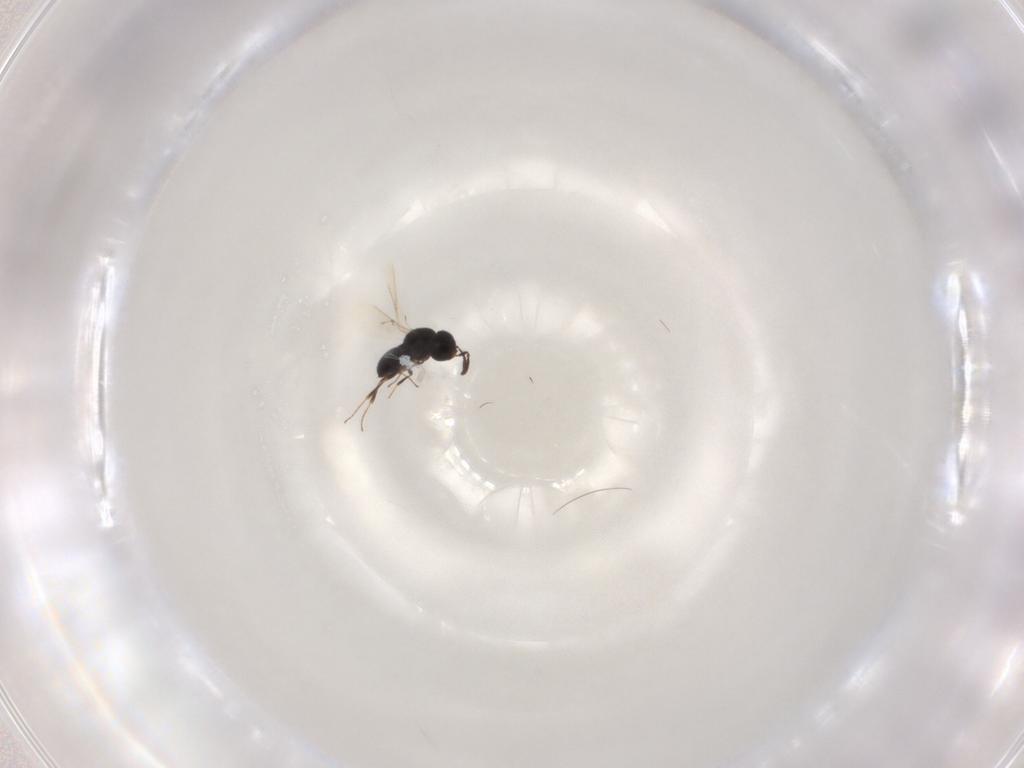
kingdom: Animalia
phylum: Arthropoda
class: Insecta
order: Hymenoptera
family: Scelionidae
